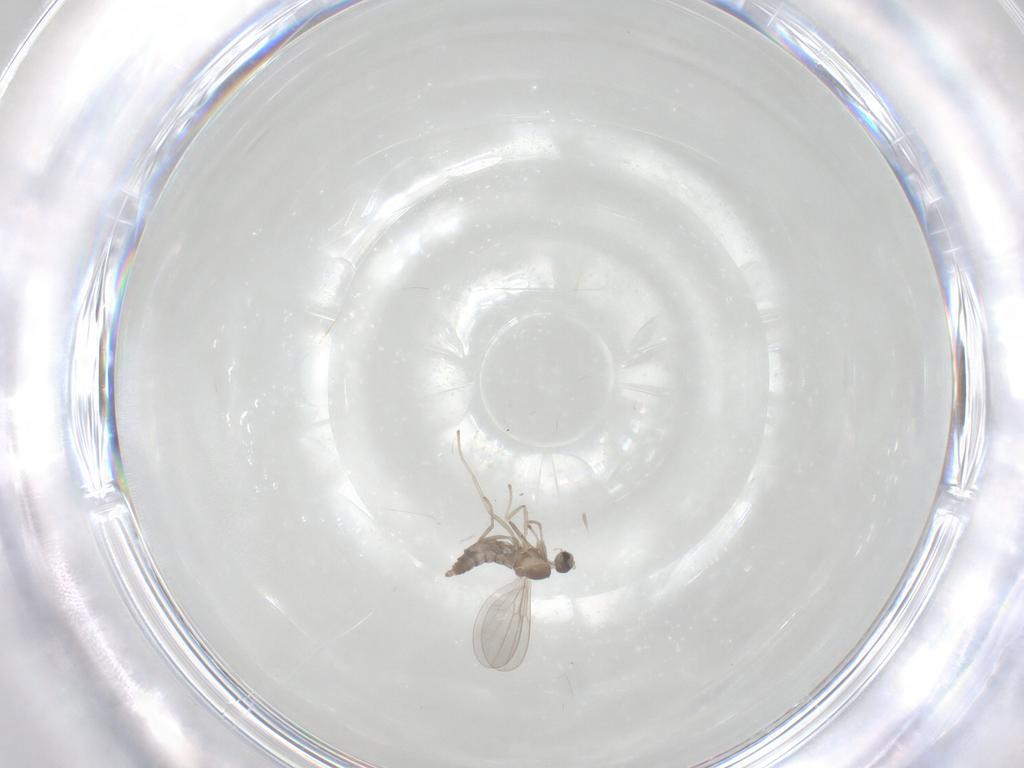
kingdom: Animalia
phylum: Arthropoda
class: Insecta
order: Diptera
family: Cecidomyiidae
